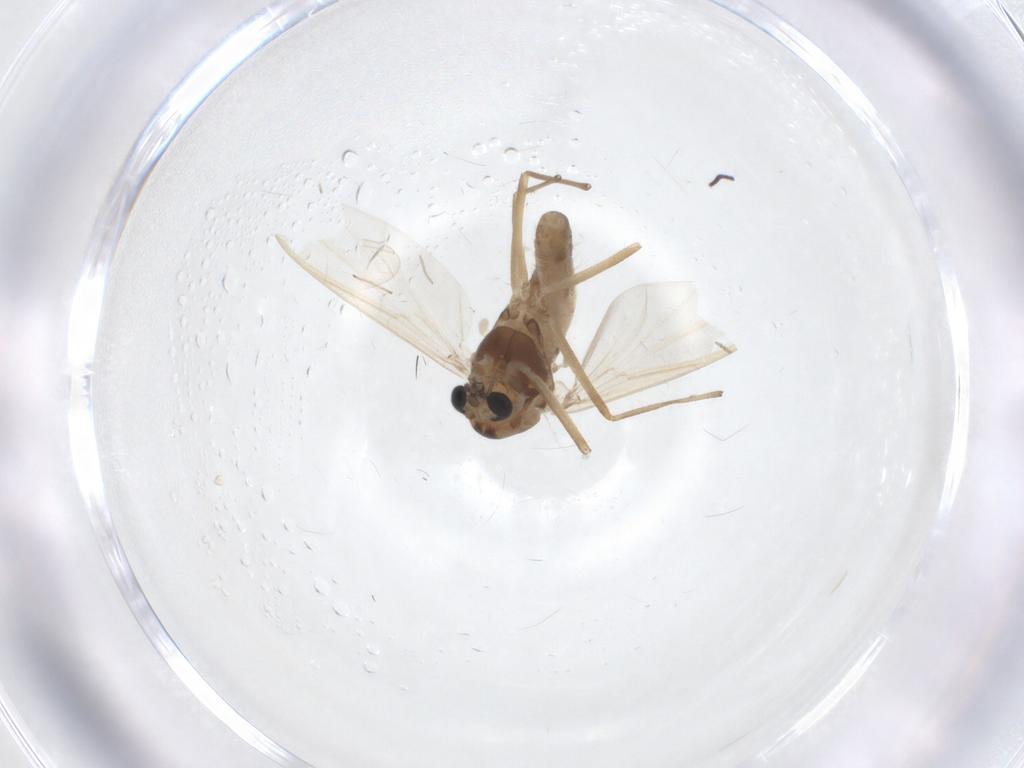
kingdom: Animalia
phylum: Arthropoda
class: Insecta
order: Diptera
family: Chironomidae
